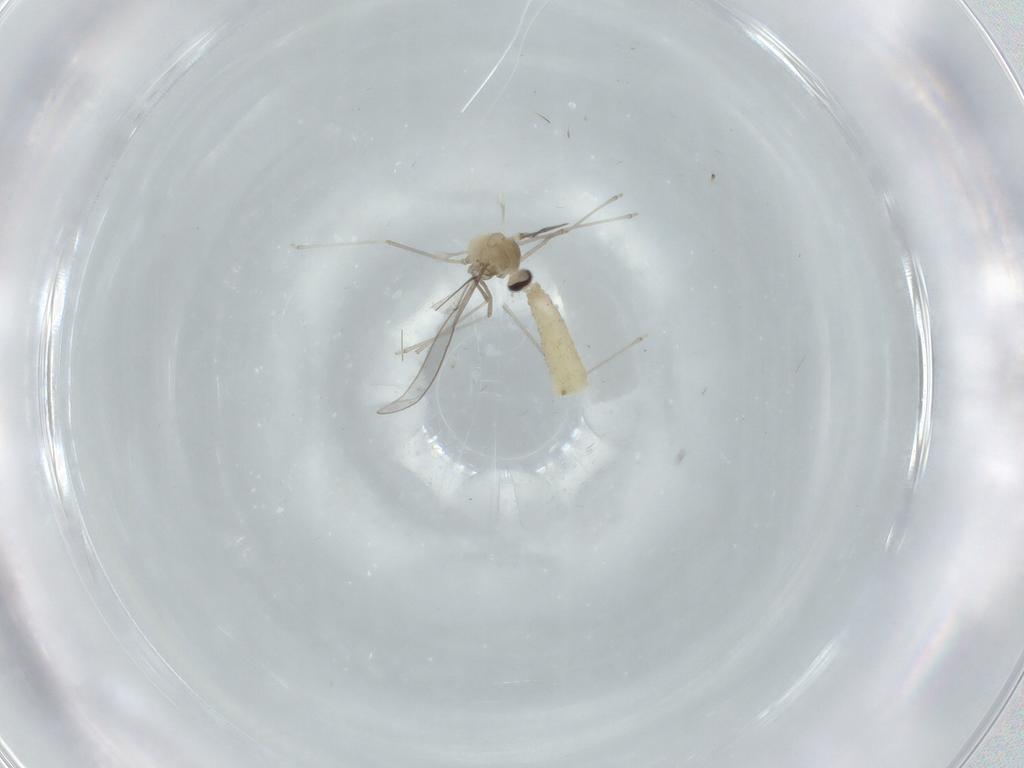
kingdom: Animalia
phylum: Arthropoda
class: Insecta
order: Diptera
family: Cecidomyiidae
